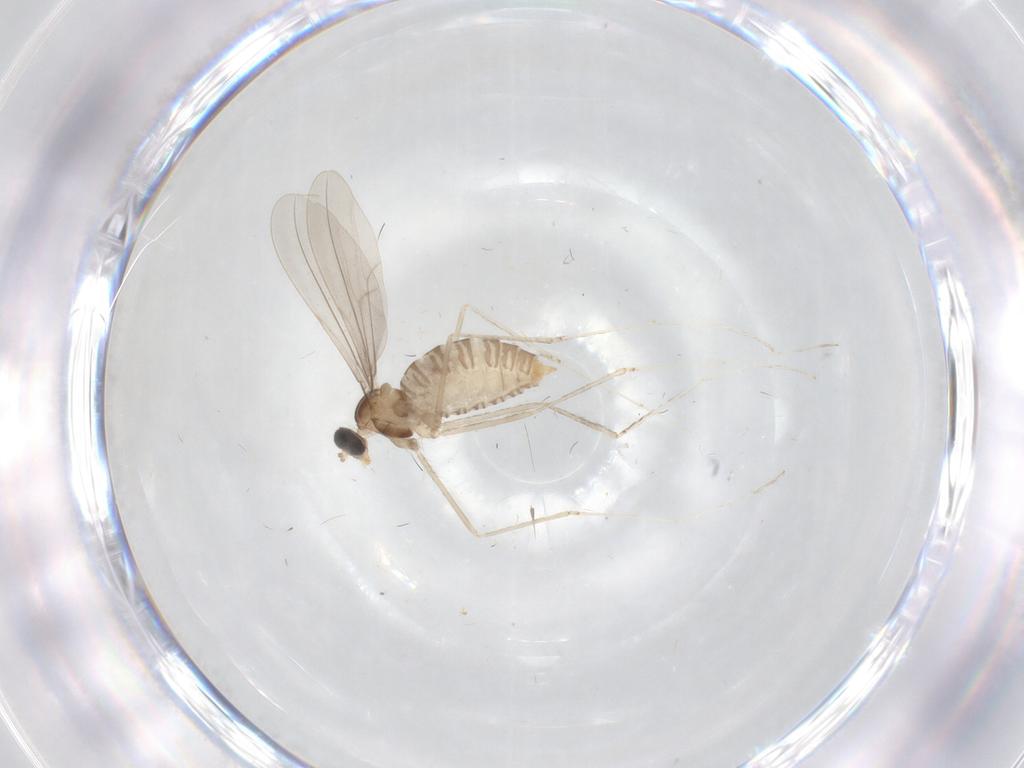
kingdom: Animalia
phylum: Arthropoda
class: Insecta
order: Diptera
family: Cecidomyiidae
